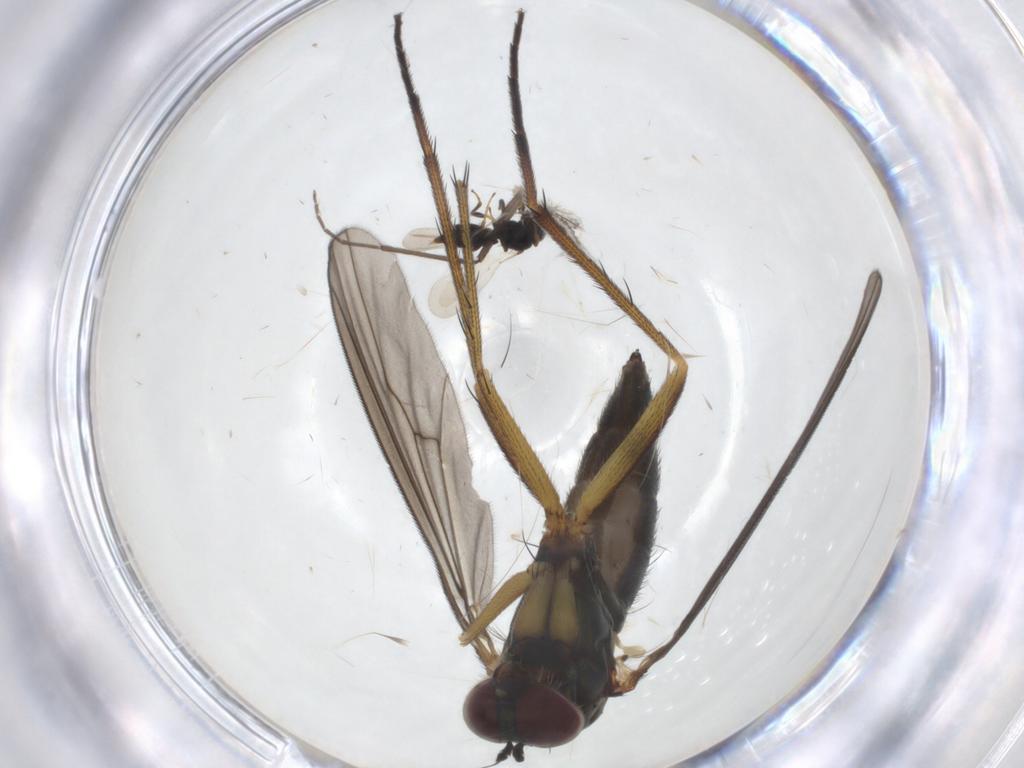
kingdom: Animalia
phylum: Arthropoda
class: Insecta
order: Diptera
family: Dolichopodidae
